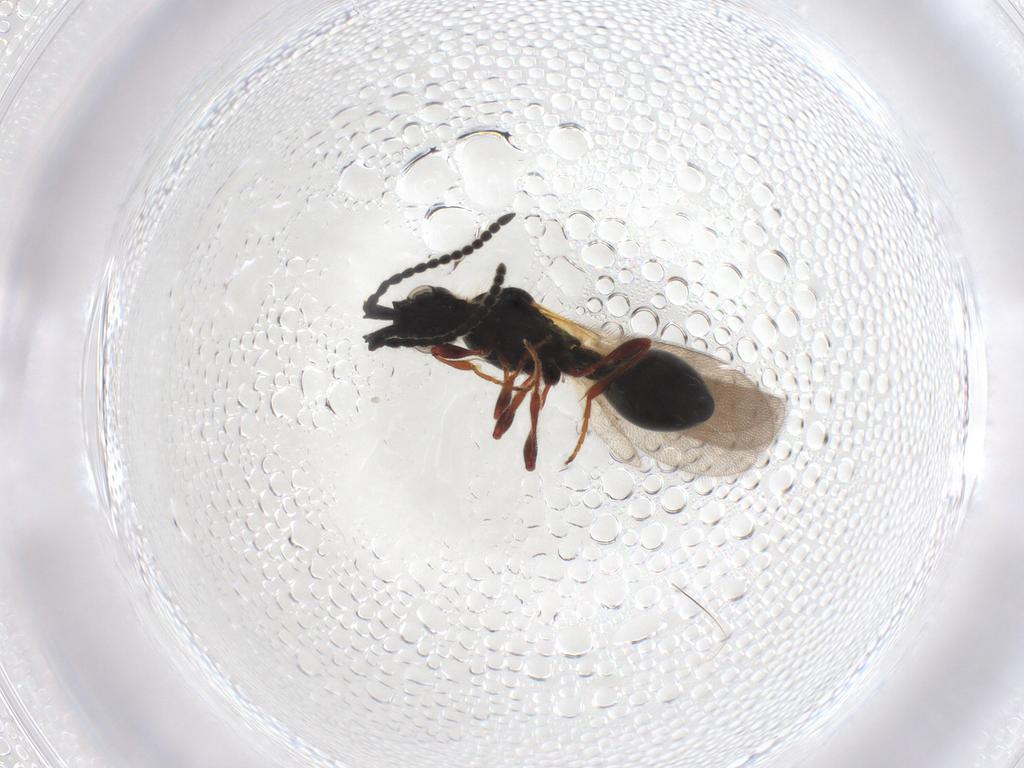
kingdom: Animalia
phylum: Arthropoda
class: Insecta
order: Hymenoptera
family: Diapriidae
